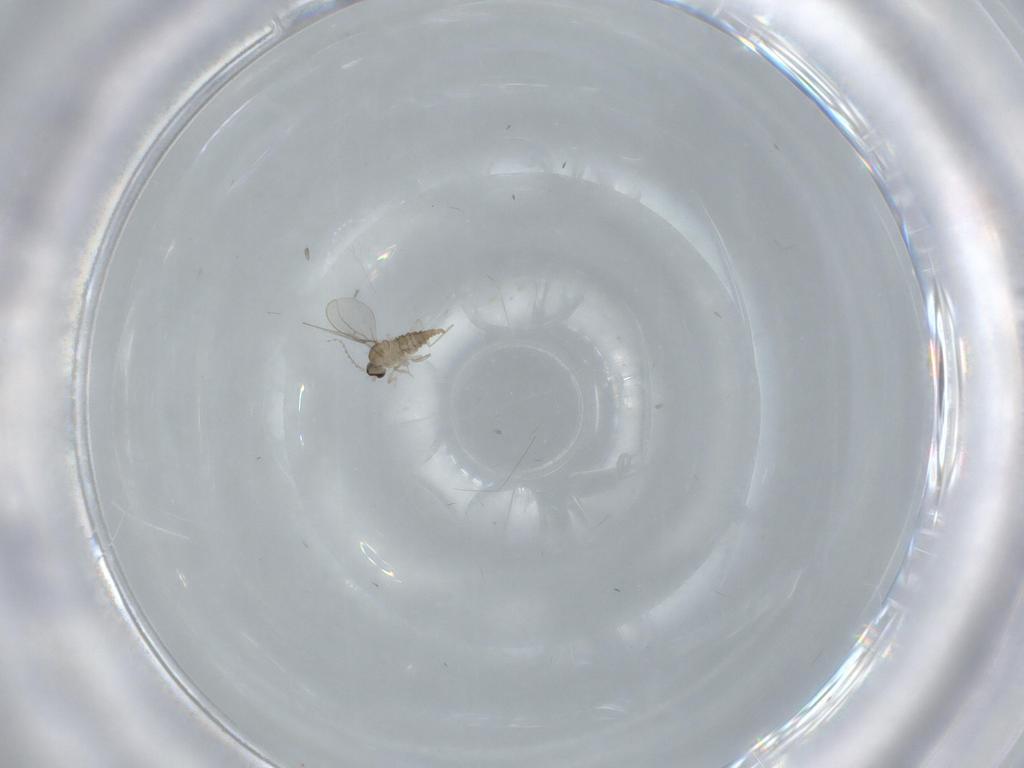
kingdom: Animalia
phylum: Arthropoda
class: Insecta
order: Diptera
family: Cecidomyiidae
